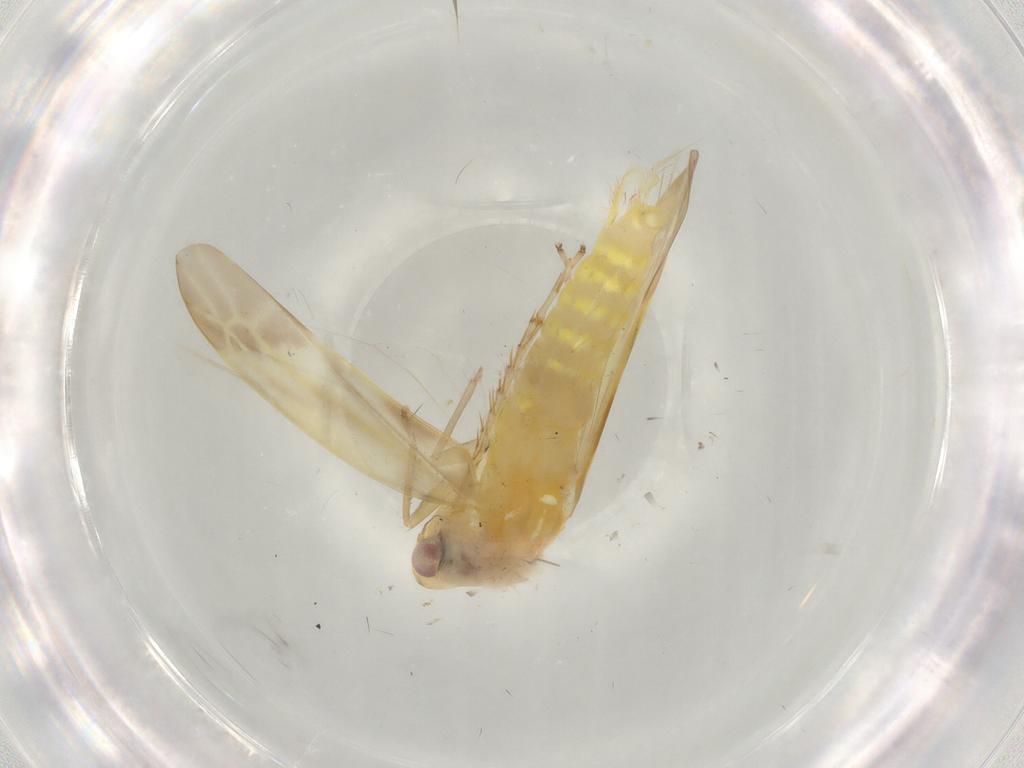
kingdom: Animalia
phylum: Arthropoda
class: Insecta
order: Hemiptera
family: Cicadellidae
